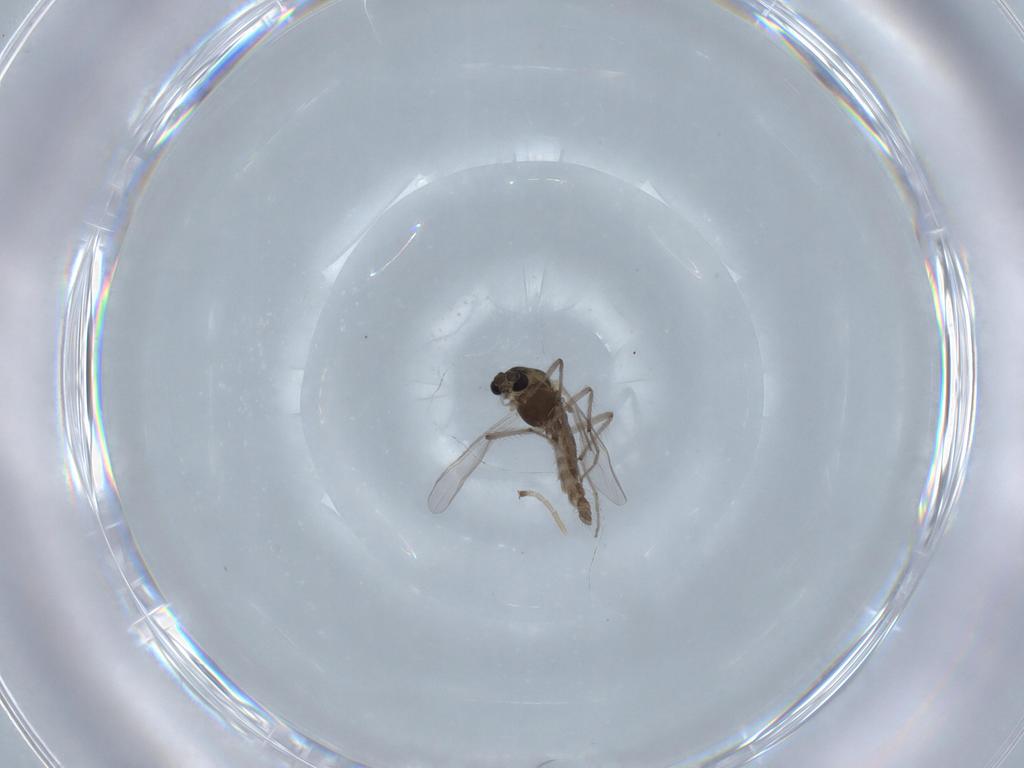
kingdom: Animalia
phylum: Arthropoda
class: Insecta
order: Diptera
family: Chironomidae
